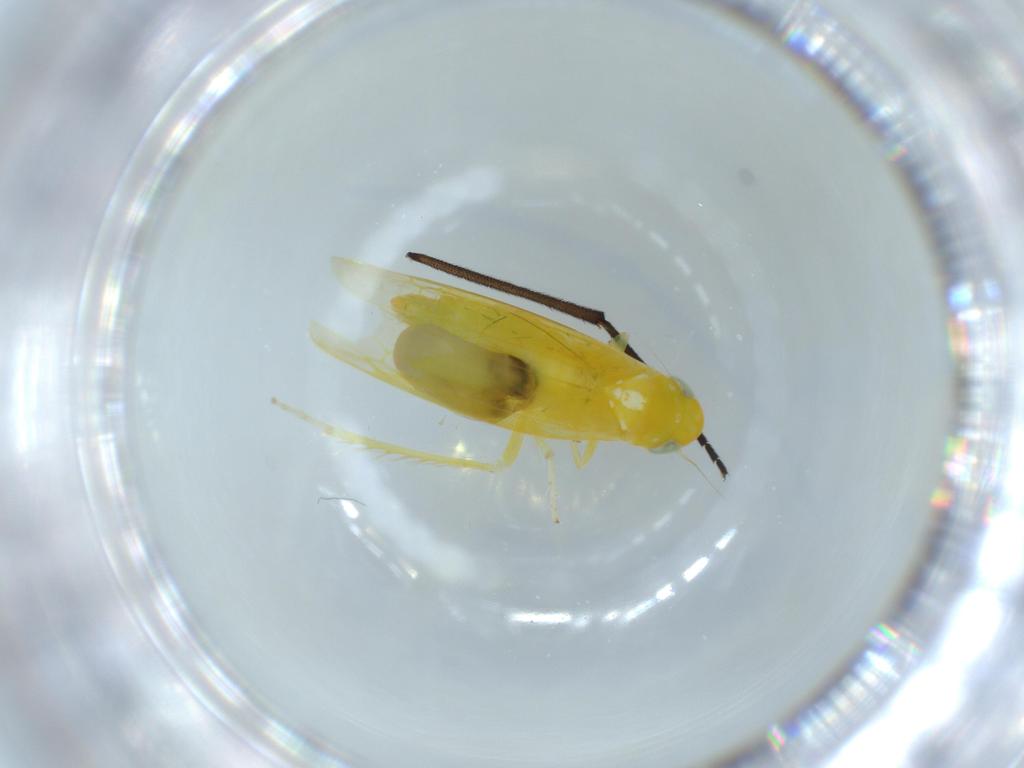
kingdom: Animalia
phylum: Arthropoda
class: Insecta
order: Hemiptera
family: Cicadellidae
